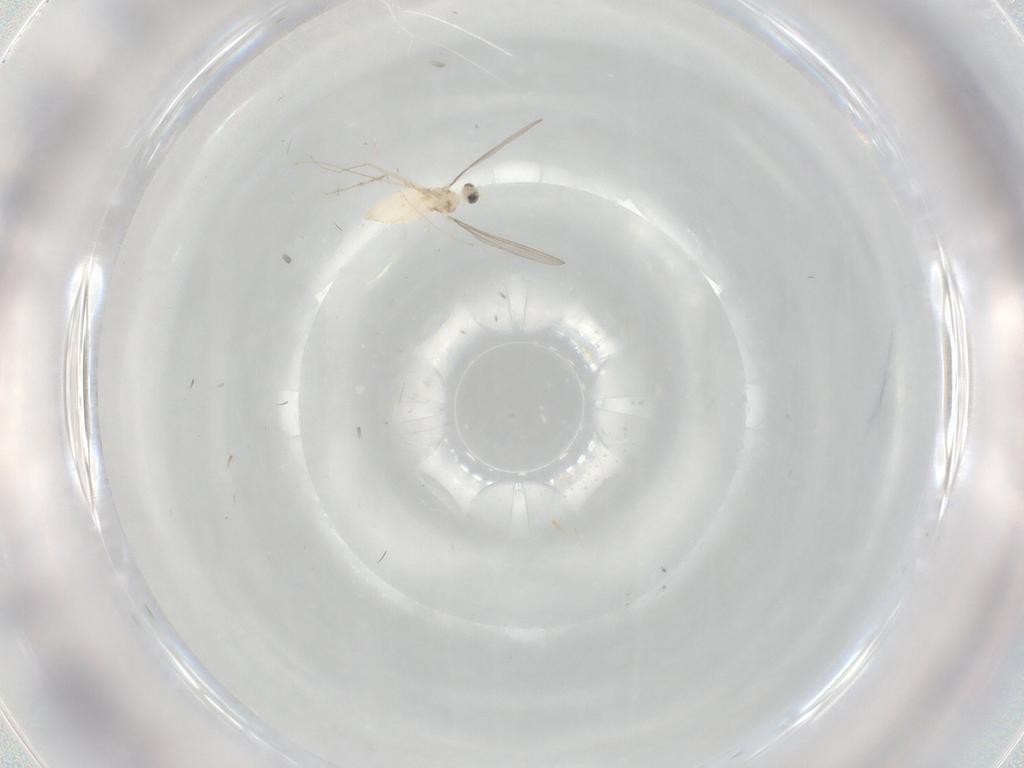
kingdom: Animalia
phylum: Arthropoda
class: Insecta
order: Diptera
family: Cecidomyiidae
